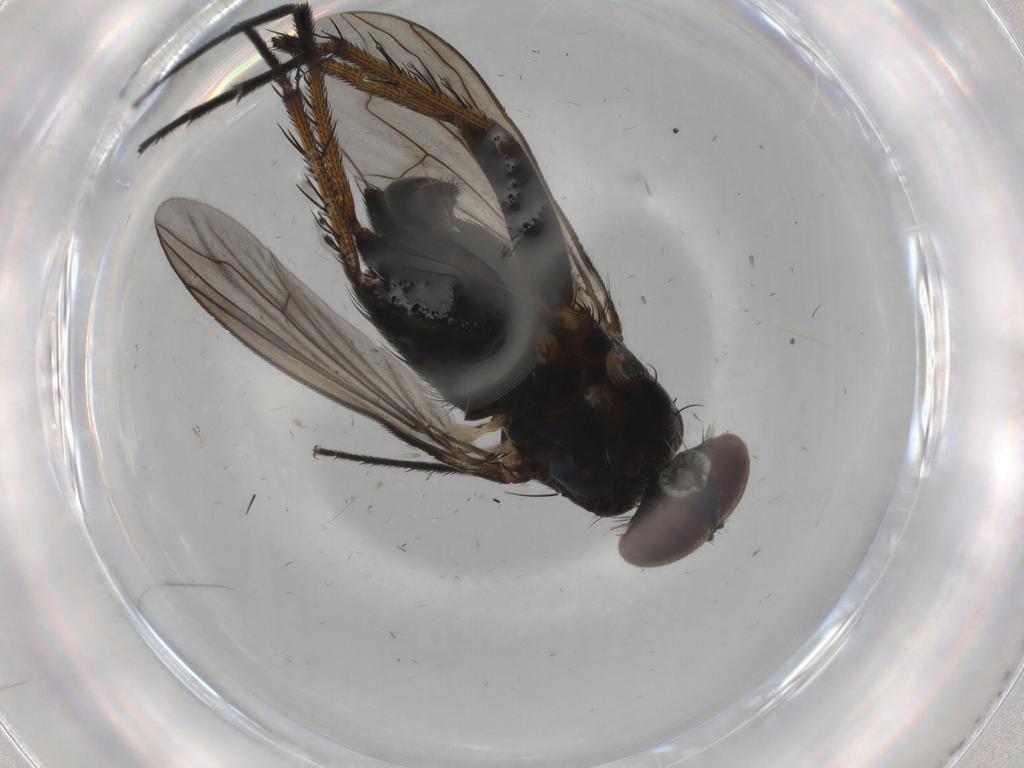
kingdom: Animalia
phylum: Arthropoda
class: Insecta
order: Diptera
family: Dolichopodidae
